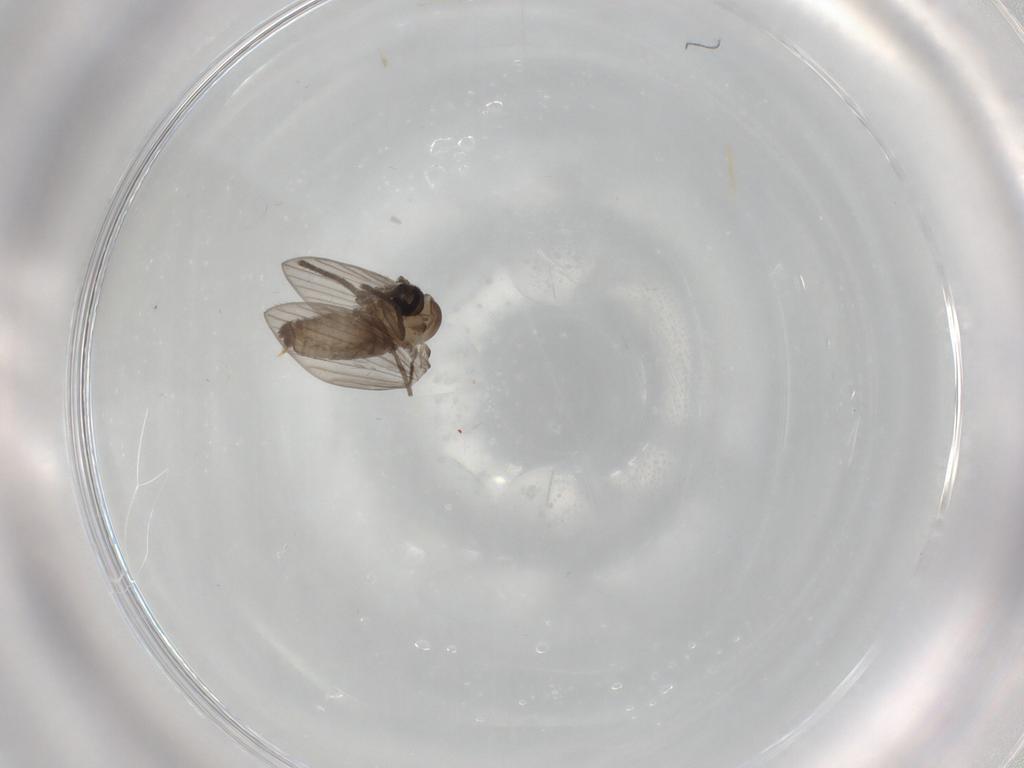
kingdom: Animalia
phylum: Arthropoda
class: Insecta
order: Diptera
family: Psychodidae
